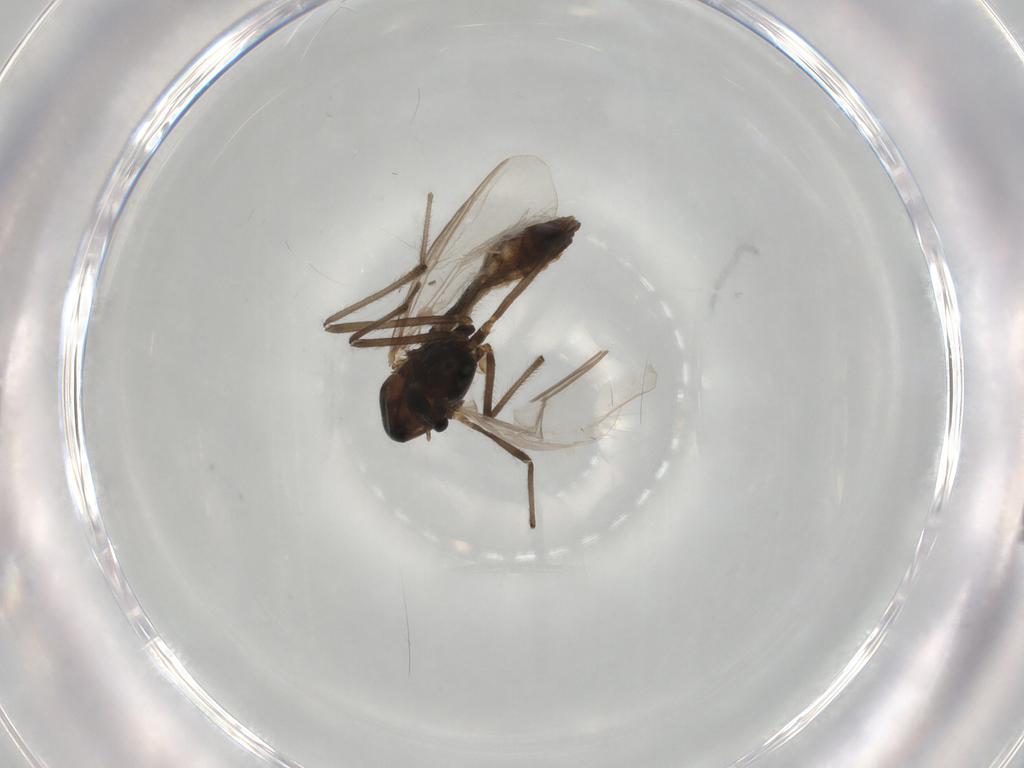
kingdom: Animalia
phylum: Arthropoda
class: Insecta
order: Diptera
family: Chironomidae
